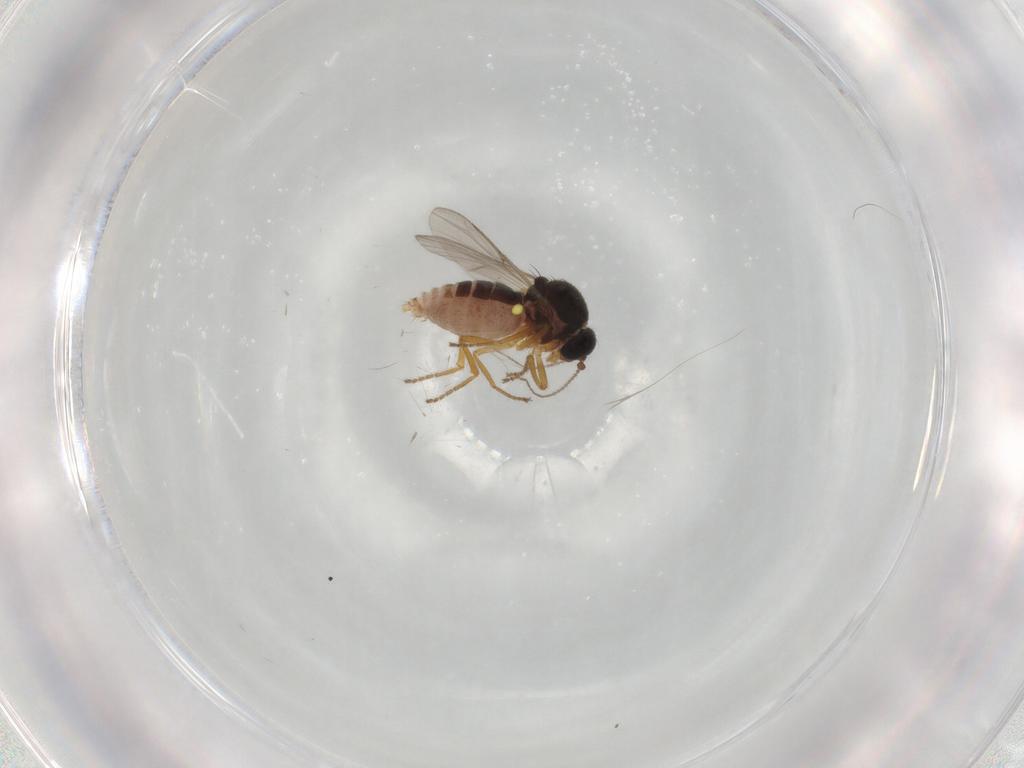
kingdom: Animalia
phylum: Arthropoda
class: Insecta
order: Diptera
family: Ceratopogonidae
